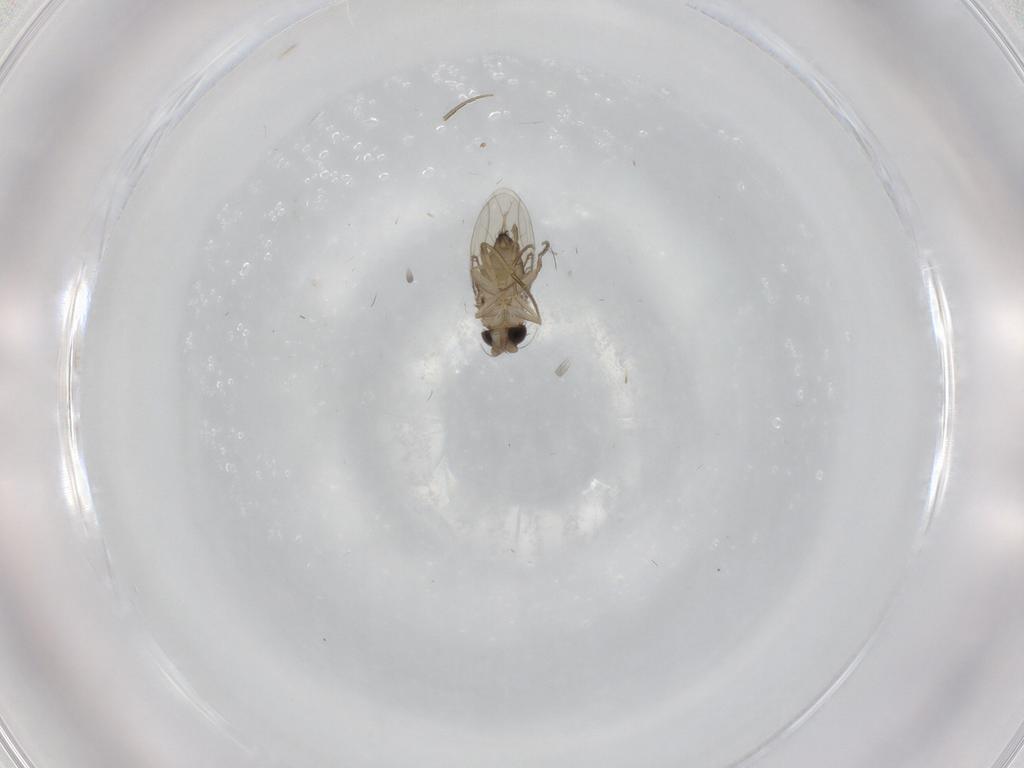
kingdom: Animalia
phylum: Arthropoda
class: Insecta
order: Diptera
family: Phoridae
